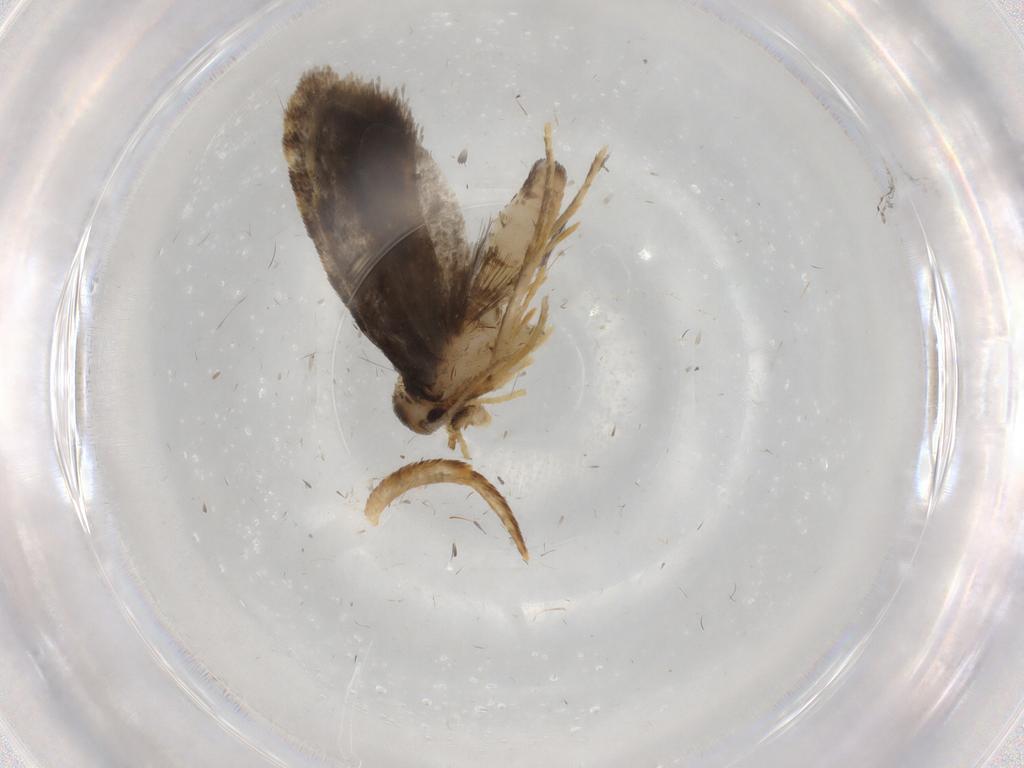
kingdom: Animalia
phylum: Arthropoda
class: Insecta
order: Lepidoptera
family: Psychidae
